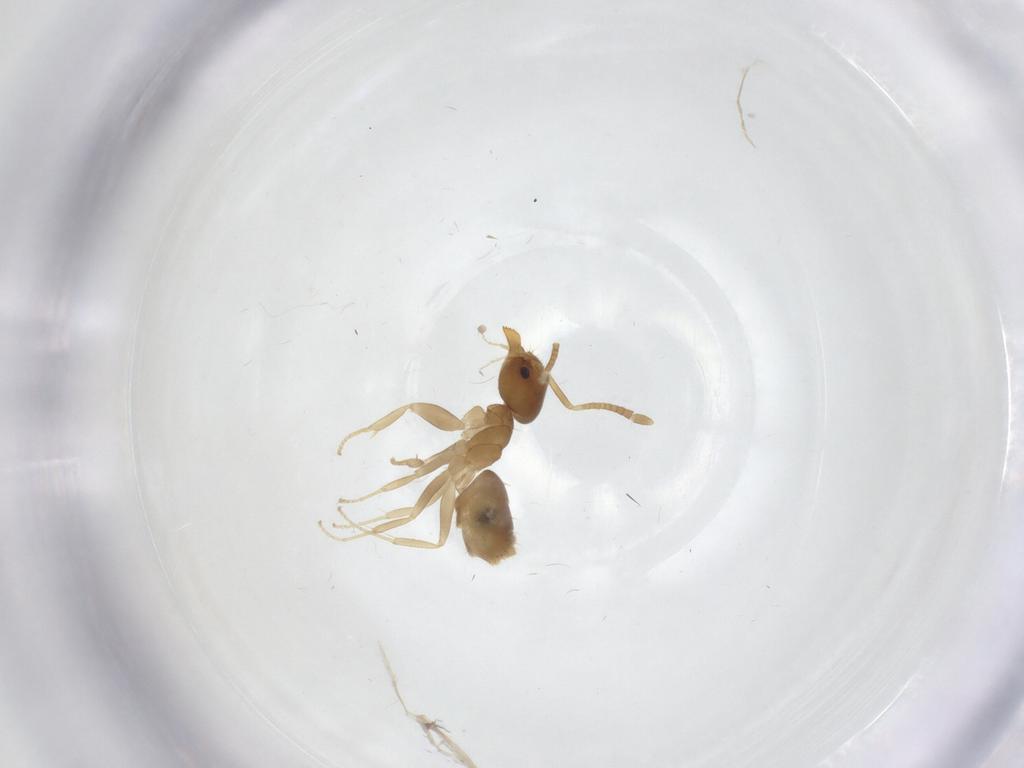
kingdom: Animalia
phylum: Arthropoda
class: Insecta
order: Hymenoptera
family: Formicidae
